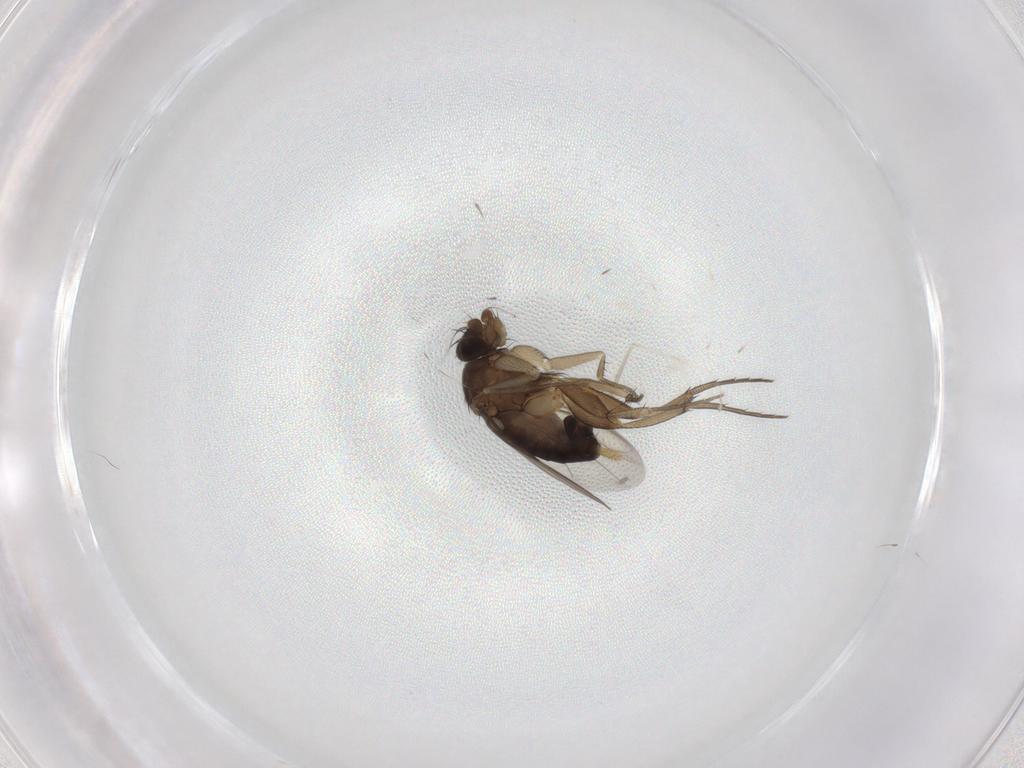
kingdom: Animalia
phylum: Arthropoda
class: Insecta
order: Diptera
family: Phoridae
